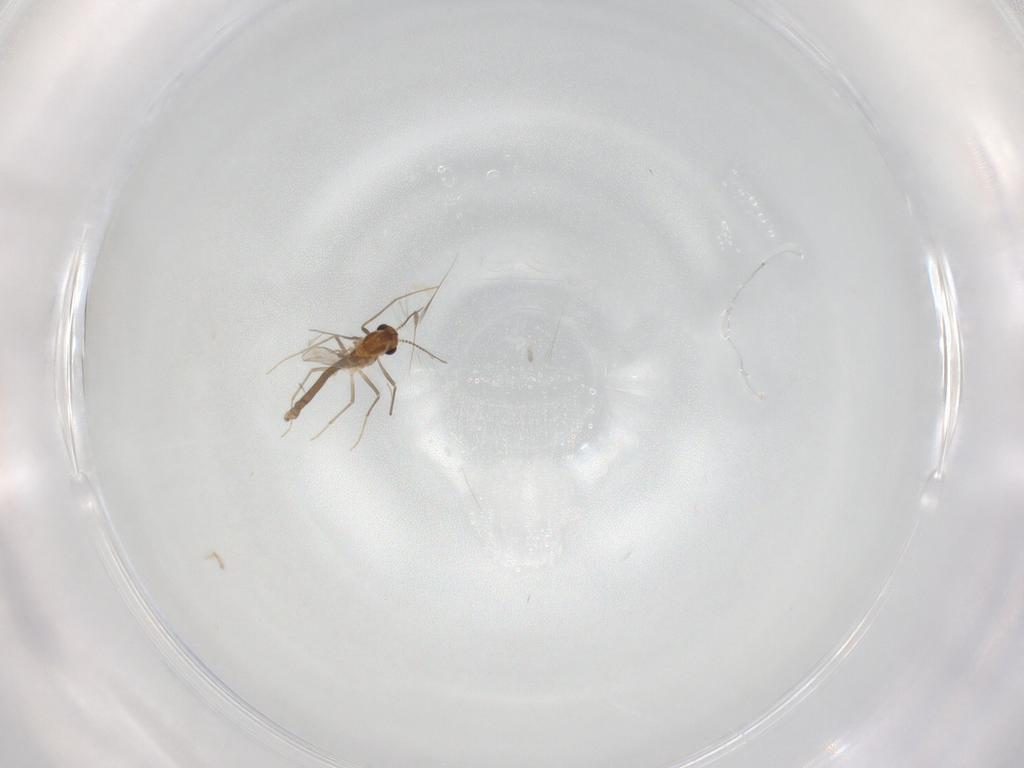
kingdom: Animalia
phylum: Arthropoda
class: Insecta
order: Diptera
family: Chironomidae
